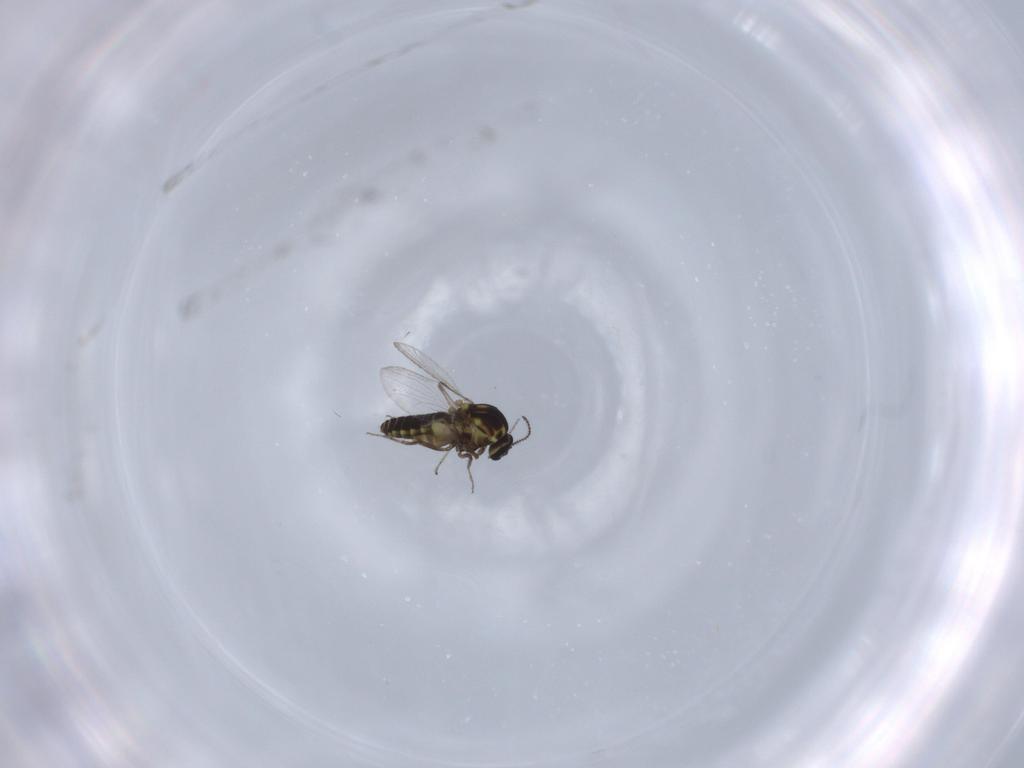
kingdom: Animalia
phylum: Arthropoda
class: Insecta
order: Diptera
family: Ceratopogonidae
